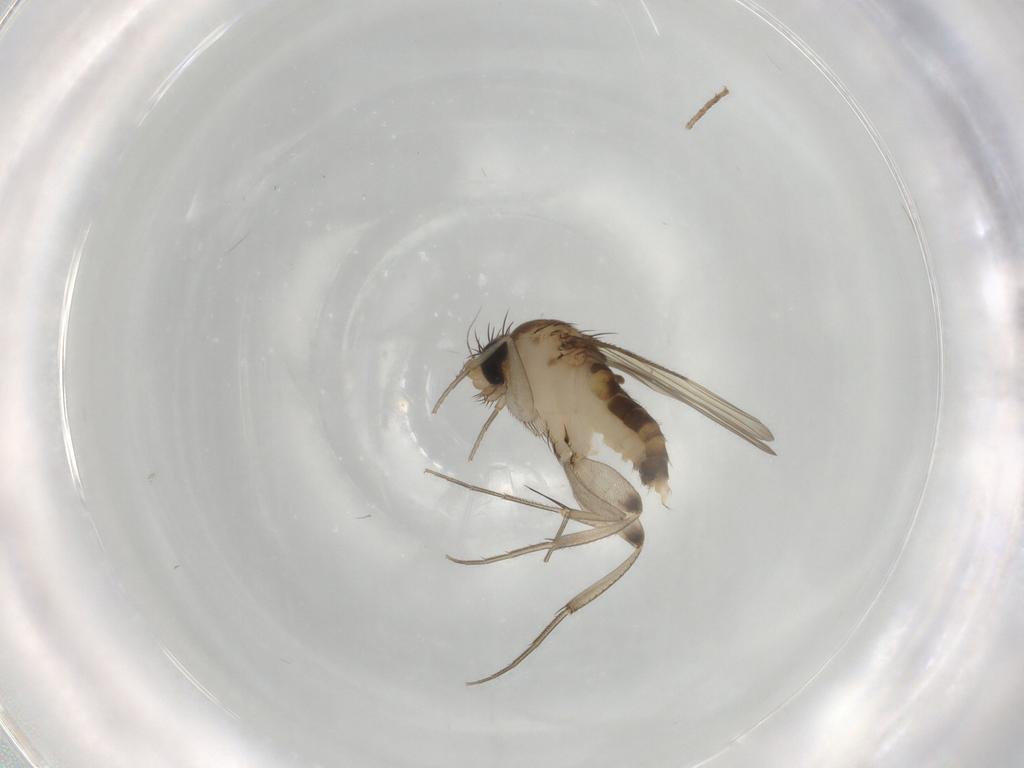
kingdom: Animalia
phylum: Arthropoda
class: Insecta
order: Diptera
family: Phoridae
